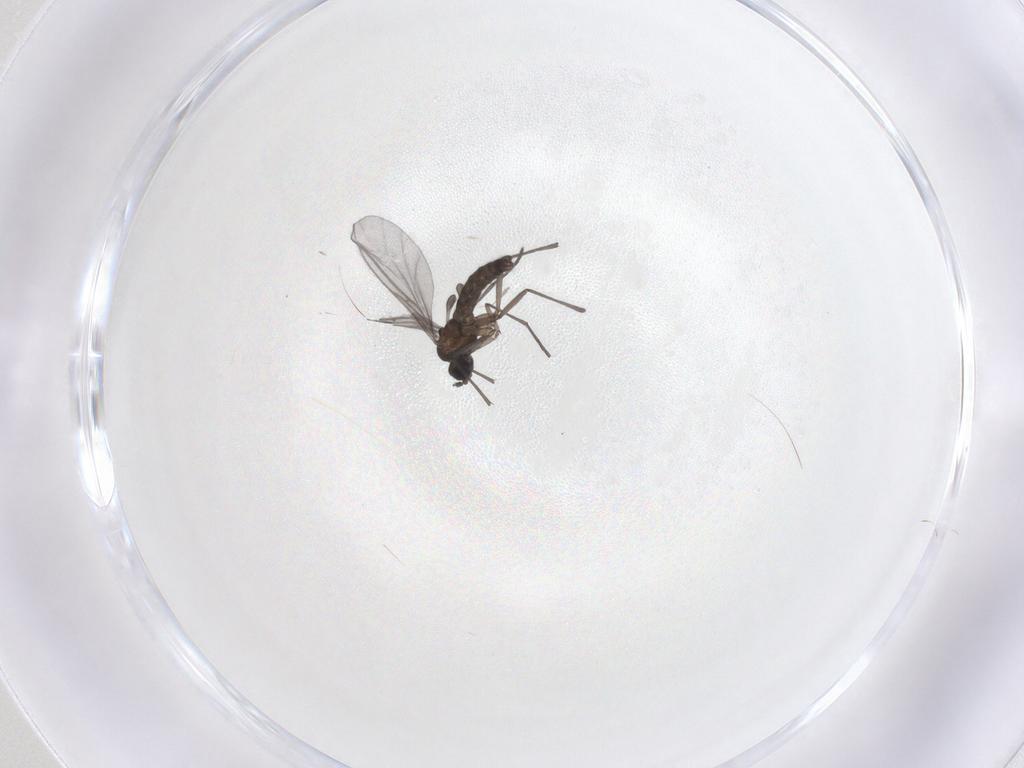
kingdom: Animalia
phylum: Arthropoda
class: Insecta
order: Diptera
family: Sciaridae
